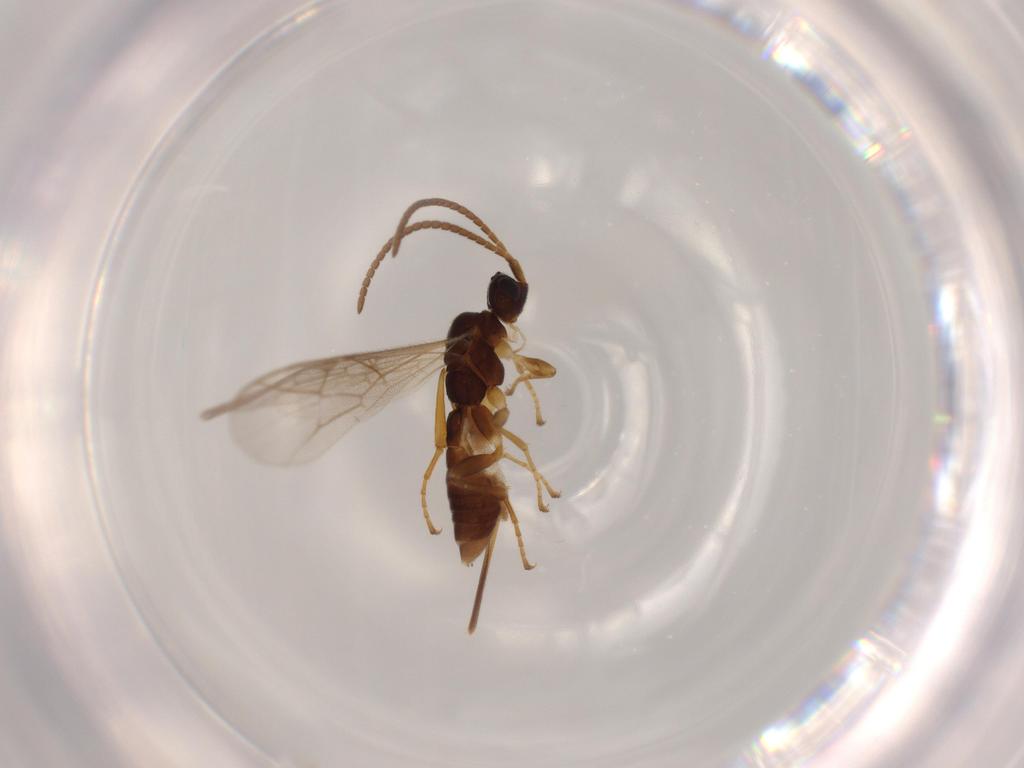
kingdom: Animalia
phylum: Arthropoda
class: Insecta
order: Hymenoptera
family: Ichneumonidae
